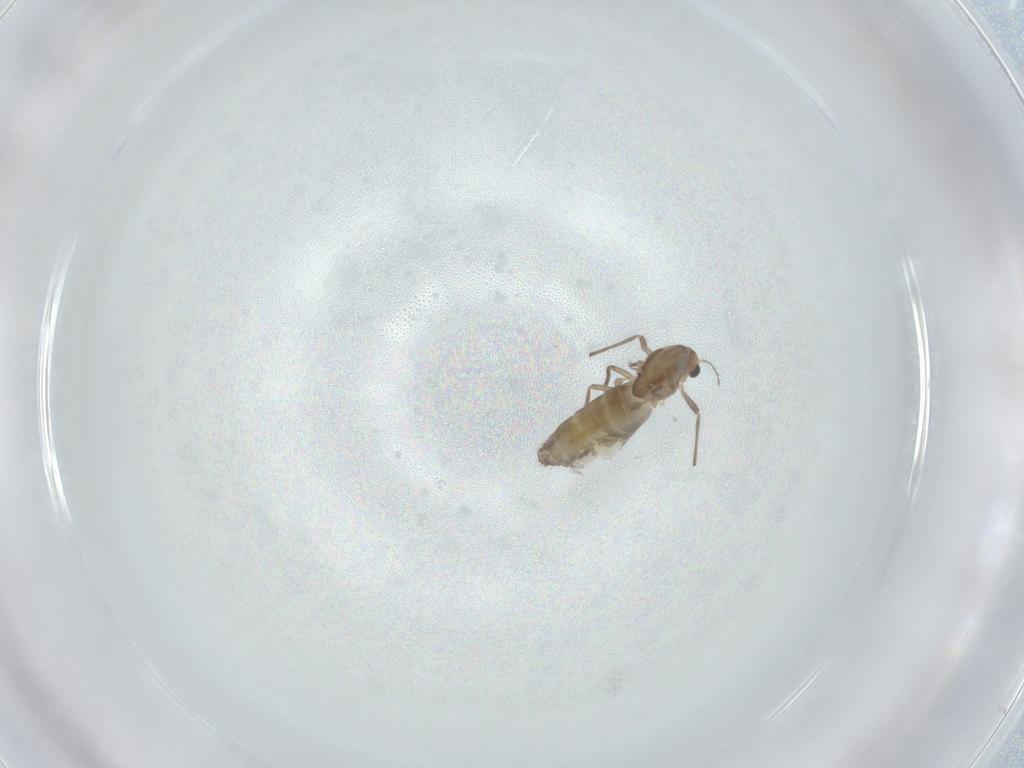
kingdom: Animalia
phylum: Arthropoda
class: Insecta
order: Diptera
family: Chironomidae
